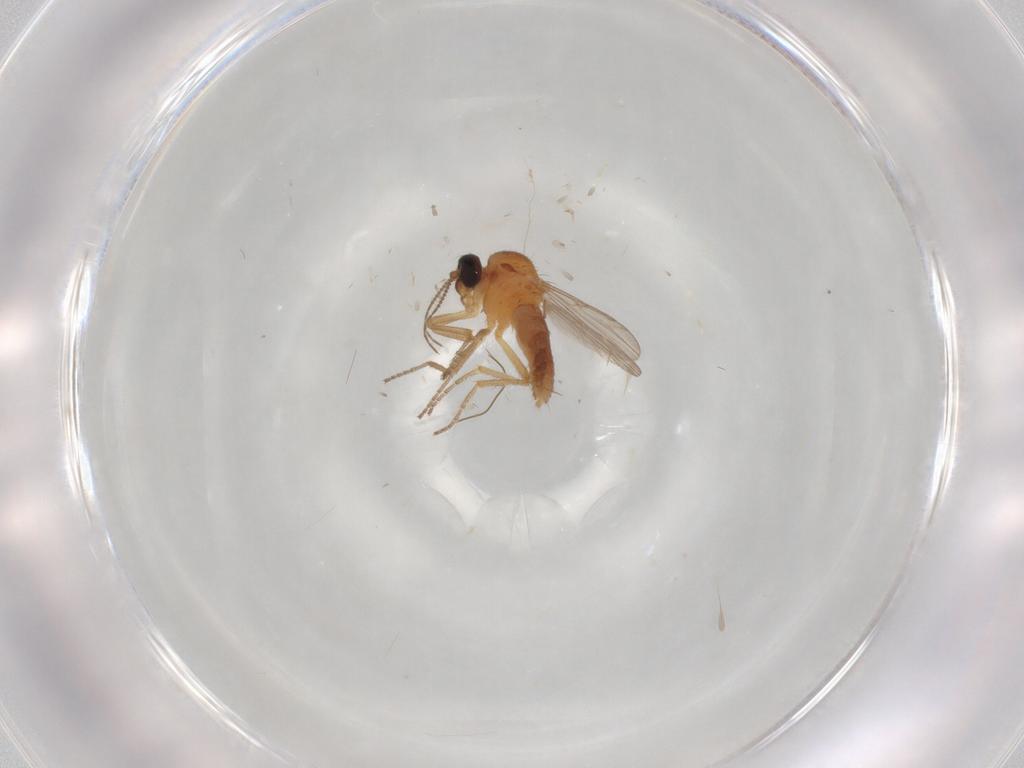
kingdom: Animalia
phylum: Arthropoda
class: Insecta
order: Diptera
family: Ceratopogonidae
